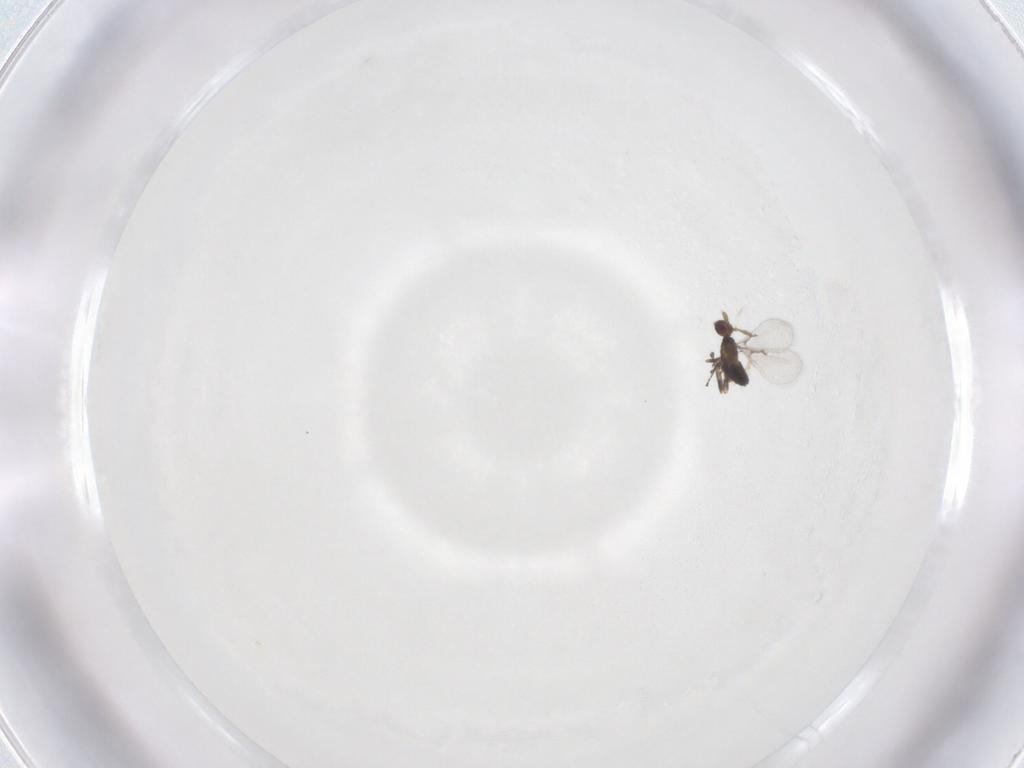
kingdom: Animalia
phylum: Arthropoda
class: Insecta
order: Hymenoptera
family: Trichogrammatidae
